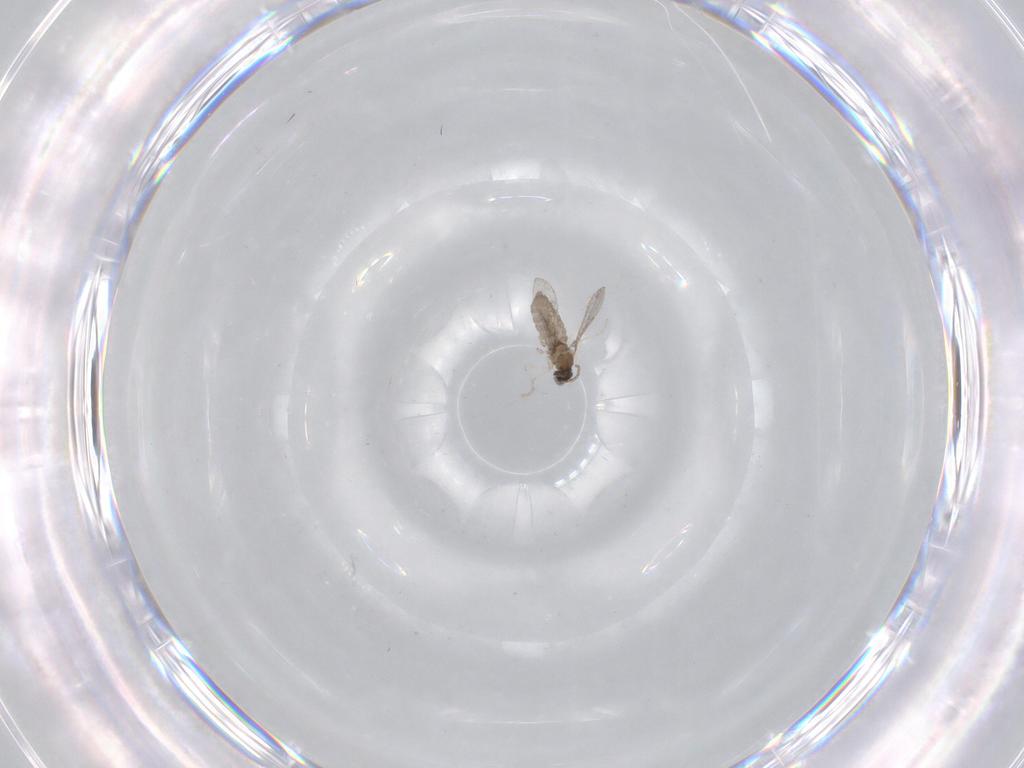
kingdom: Animalia
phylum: Arthropoda
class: Insecta
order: Diptera
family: Cecidomyiidae
